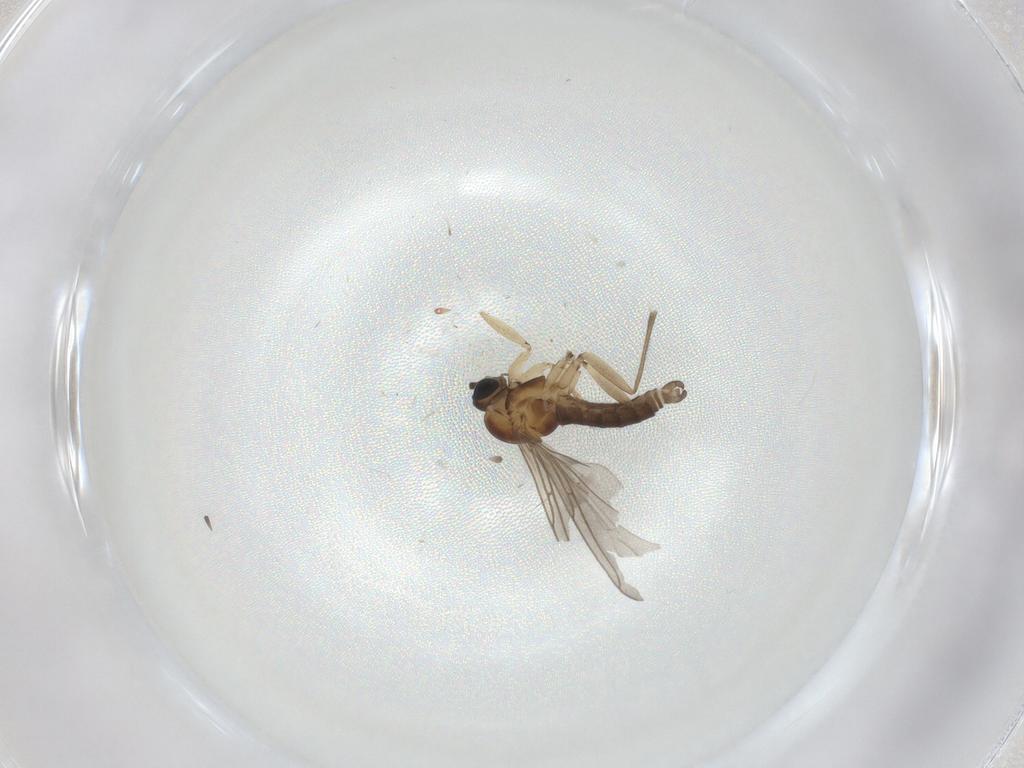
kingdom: Animalia
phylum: Arthropoda
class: Insecta
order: Diptera
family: Sciaridae
